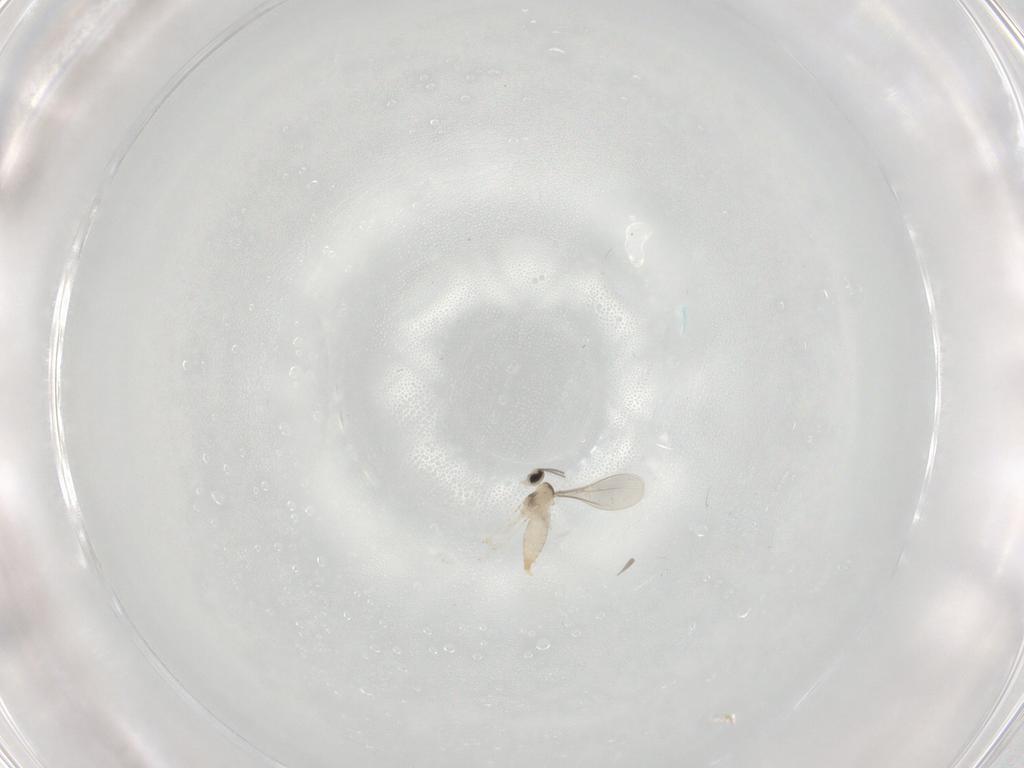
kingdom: Animalia
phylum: Arthropoda
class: Insecta
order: Diptera
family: Cecidomyiidae
